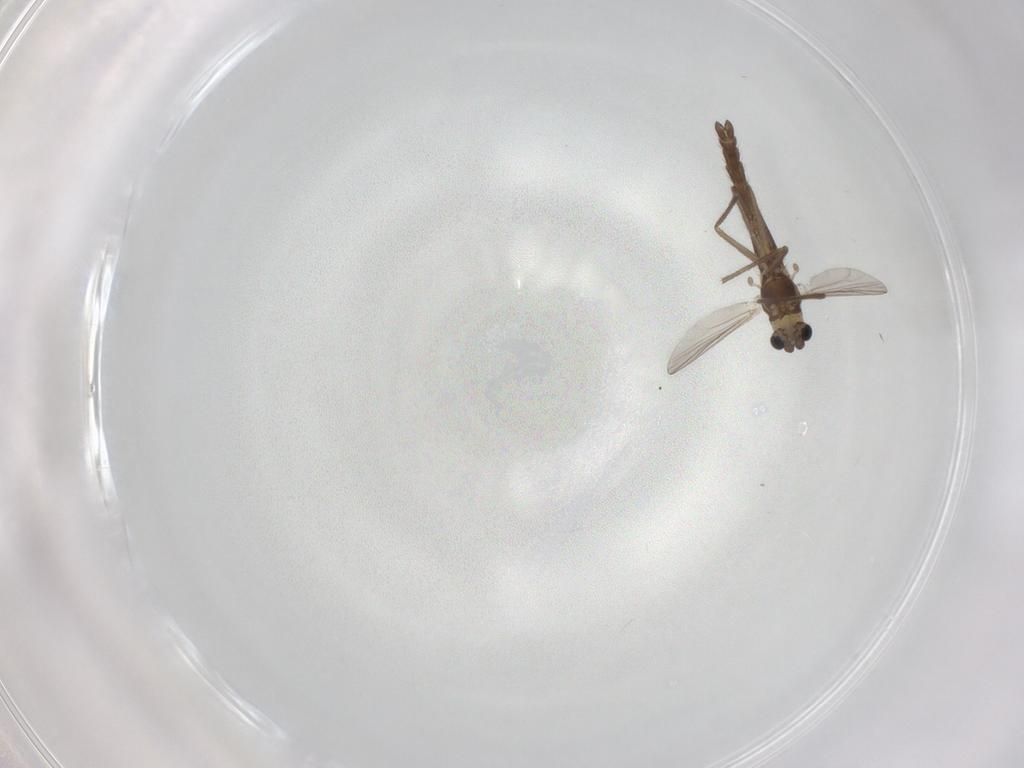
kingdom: Animalia
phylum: Arthropoda
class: Insecta
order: Diptera
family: Chironomidae
